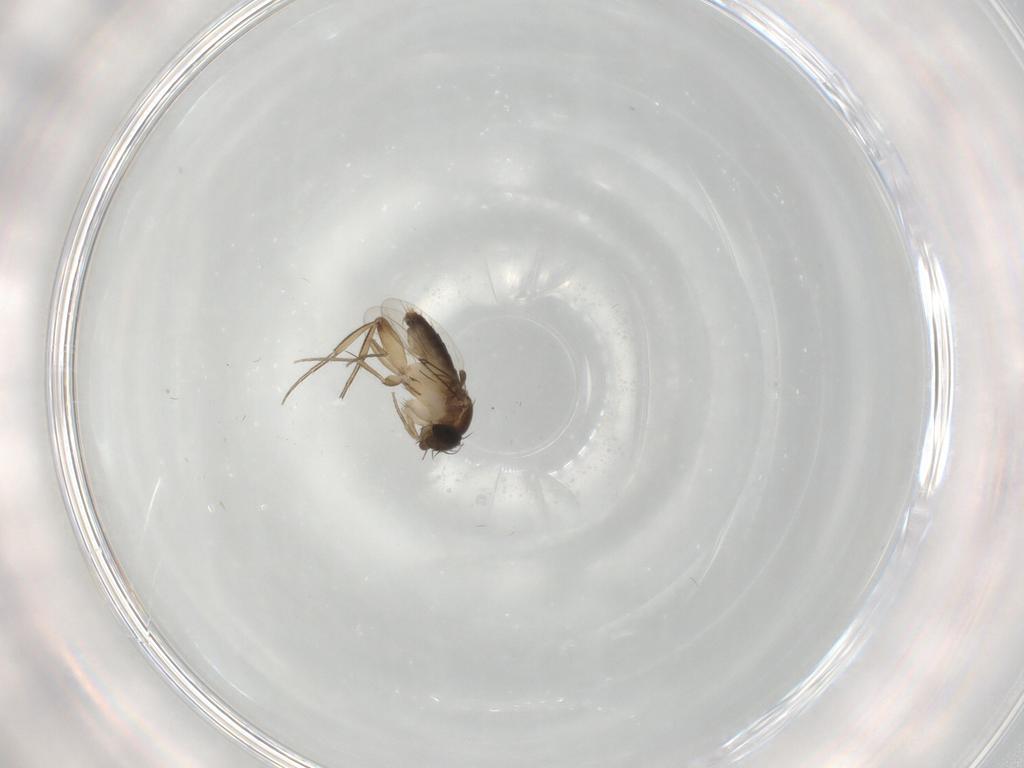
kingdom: Animalia
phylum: Arthropoda
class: Insecta
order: Diptera
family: Phoridae
